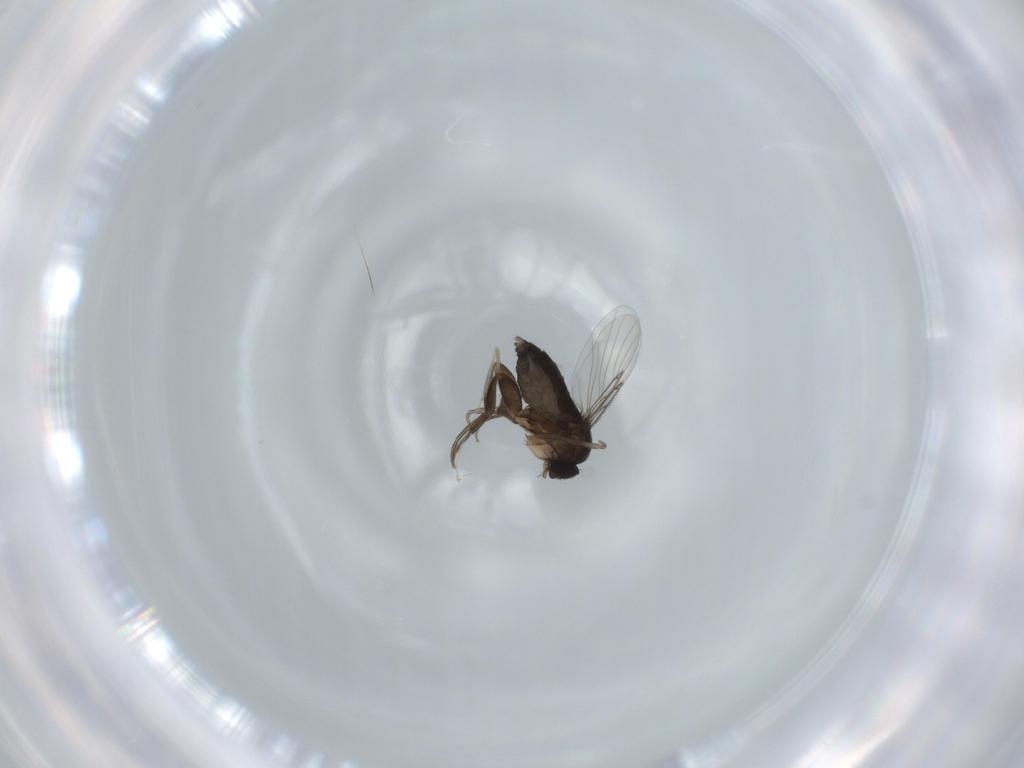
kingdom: Animalia
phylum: Arthropoda
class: Insecta
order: Diptera
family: Phoridae
